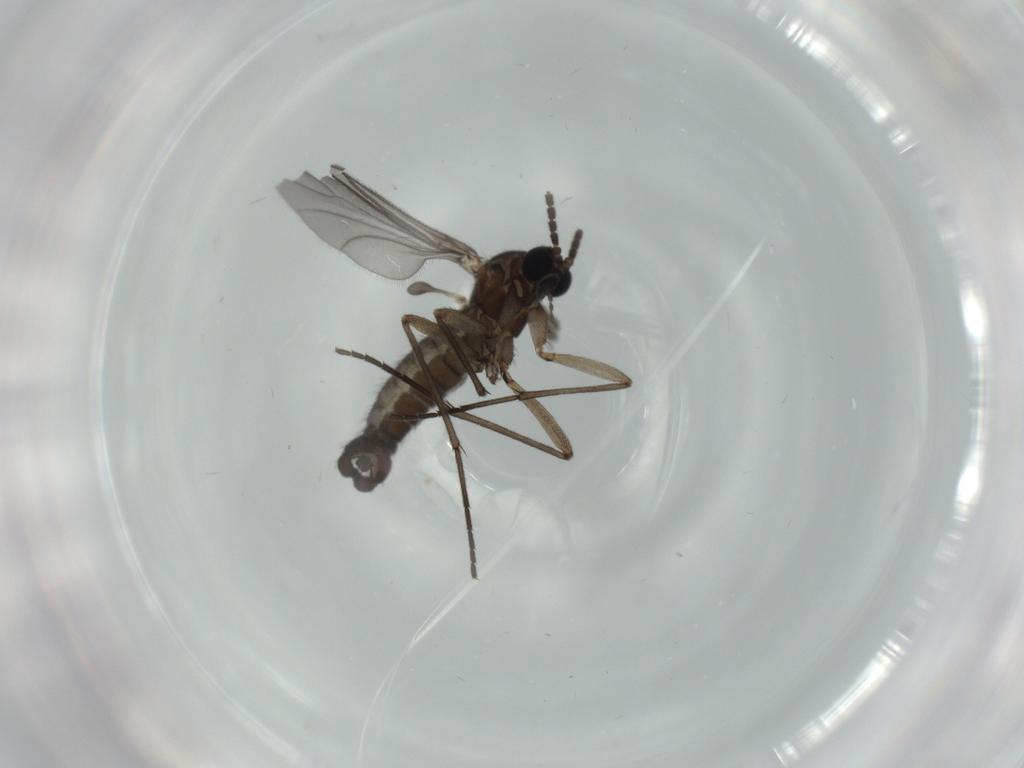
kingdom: Animalia
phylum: Arthropoda
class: Insecta
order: Diptera
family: Sciaridae
